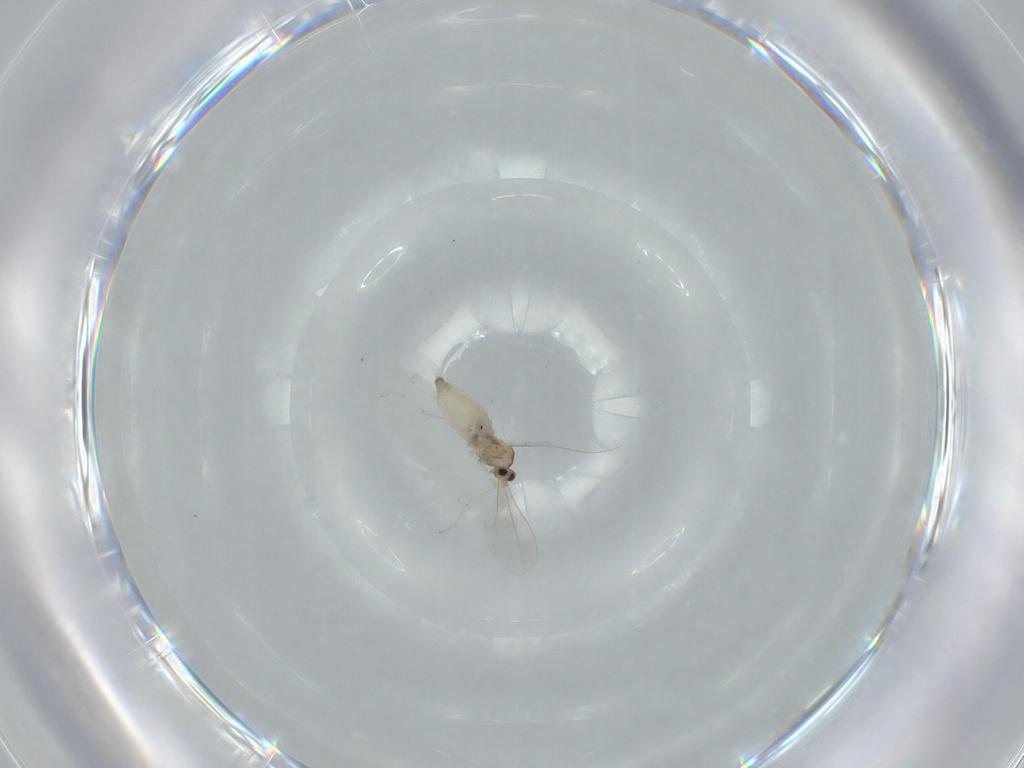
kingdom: Animalia
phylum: Arthropoda
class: Insecta
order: Diptera
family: Cecidomyiidae
